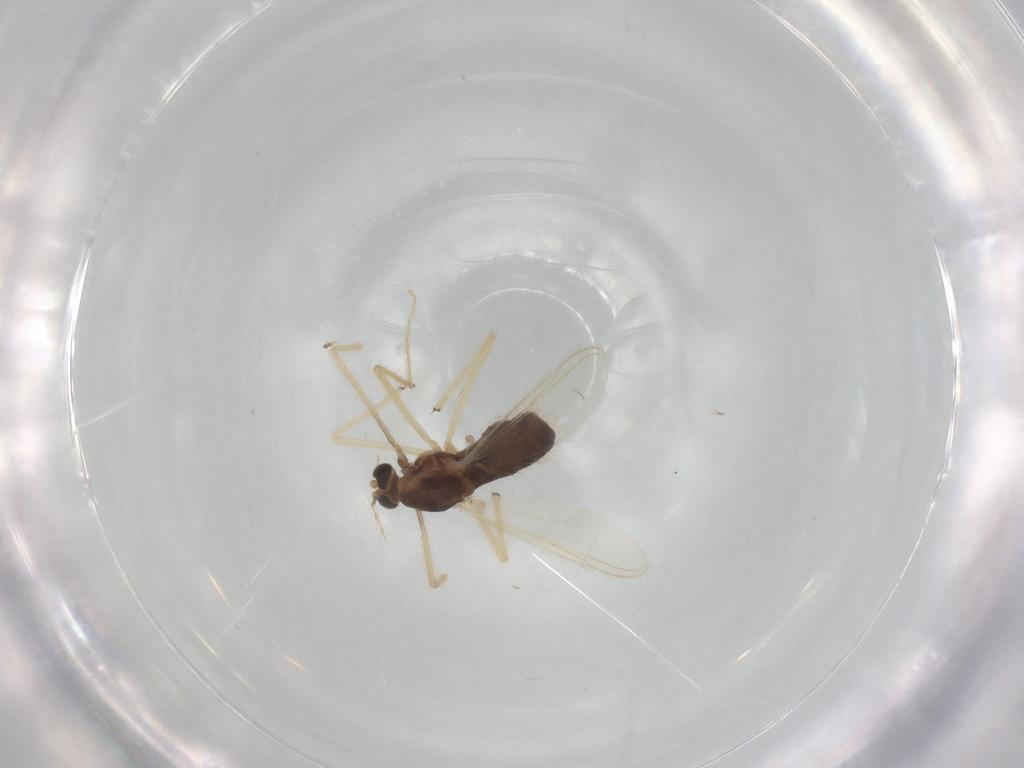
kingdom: Animalia
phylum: Arthropoda
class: Insecta
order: Diptera
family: Chironomidae
